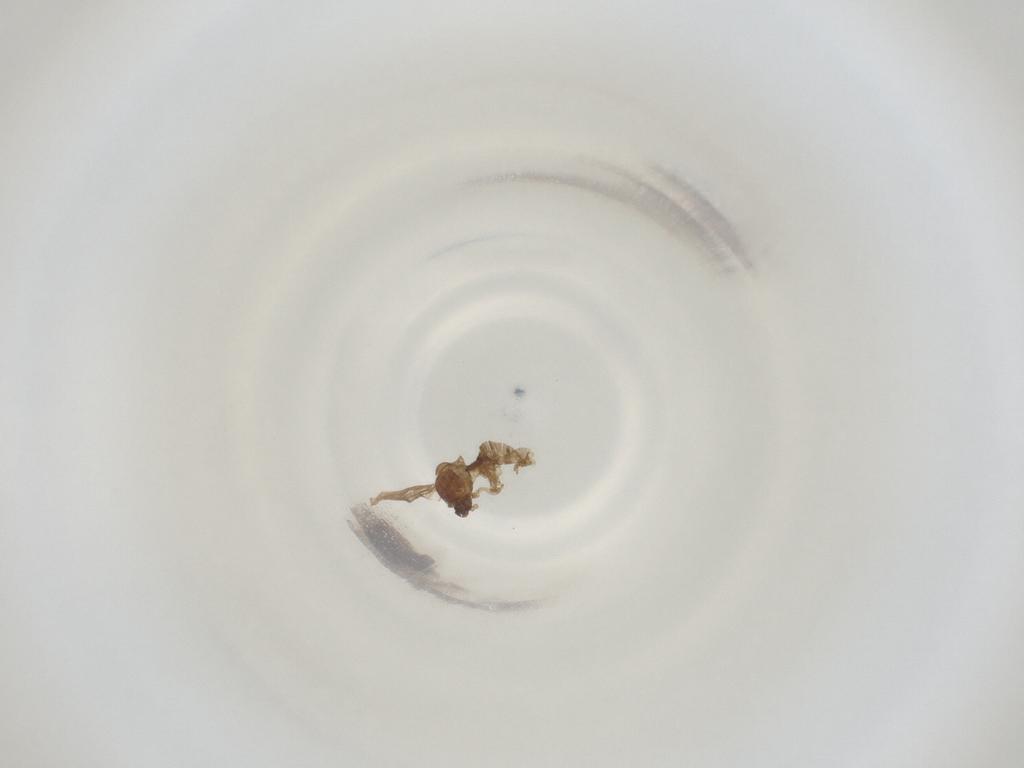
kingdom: Animalia
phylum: Arthropoda
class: Insecta
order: Diptera
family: Cecidomyiidae
